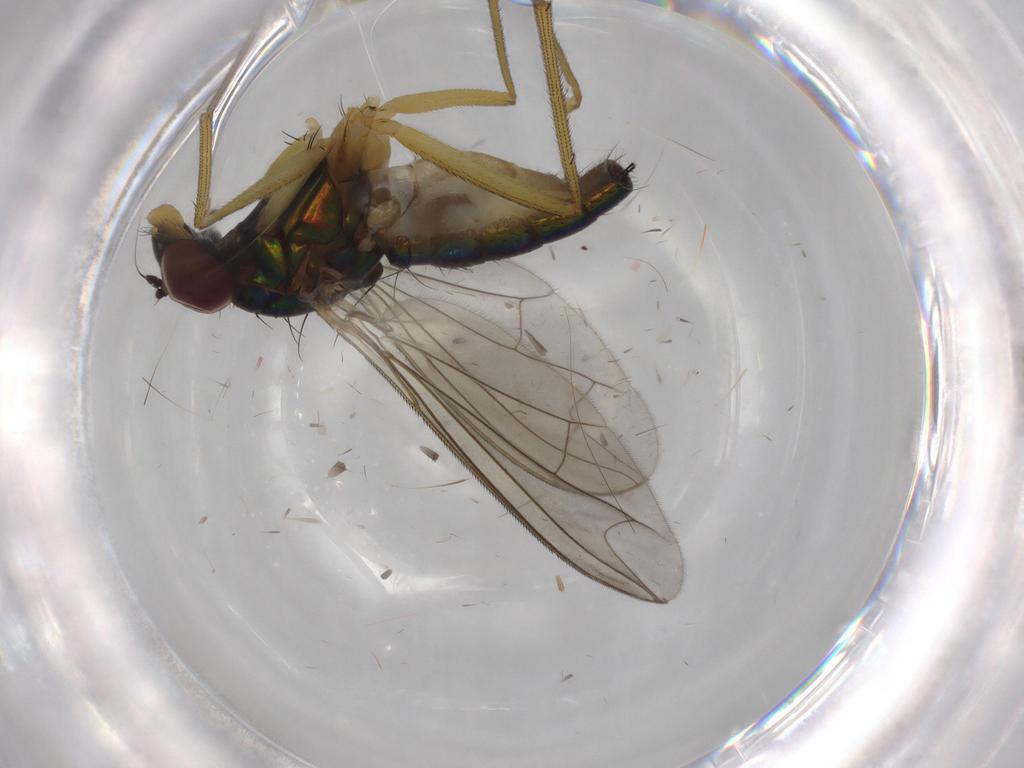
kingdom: Animalia
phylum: Arthropoda
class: Insecta
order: Diptera
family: Dolichopodidae
